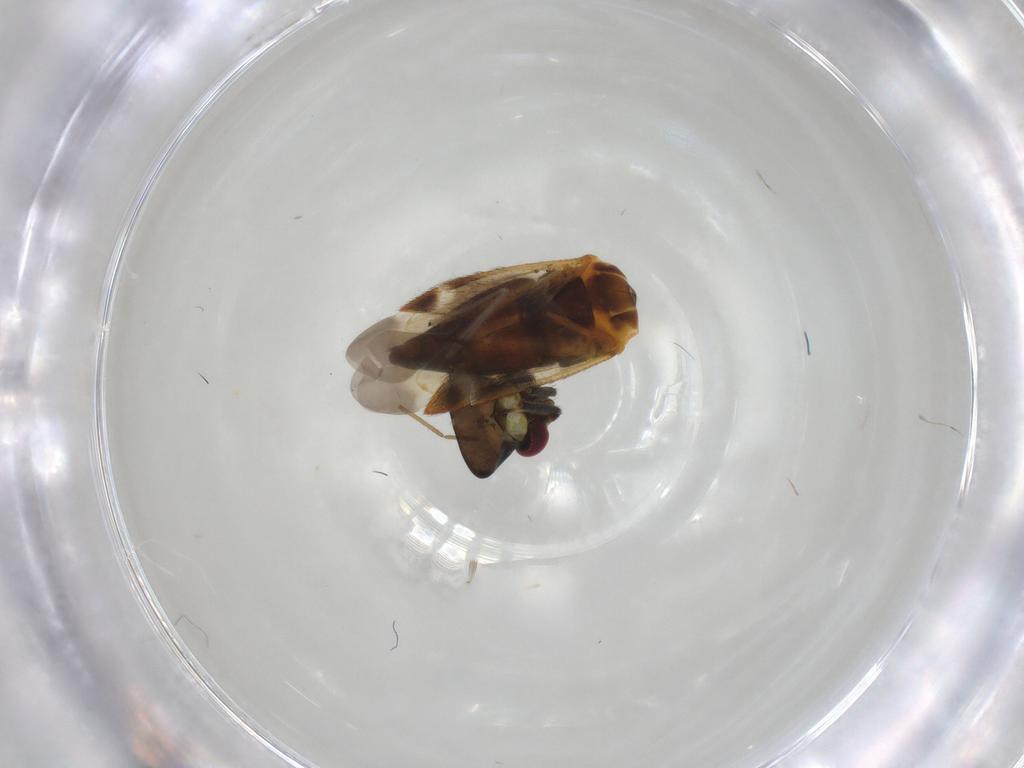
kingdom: Animalia
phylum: Arthropoda
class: Insecta
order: Hemiptera
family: Miridae
